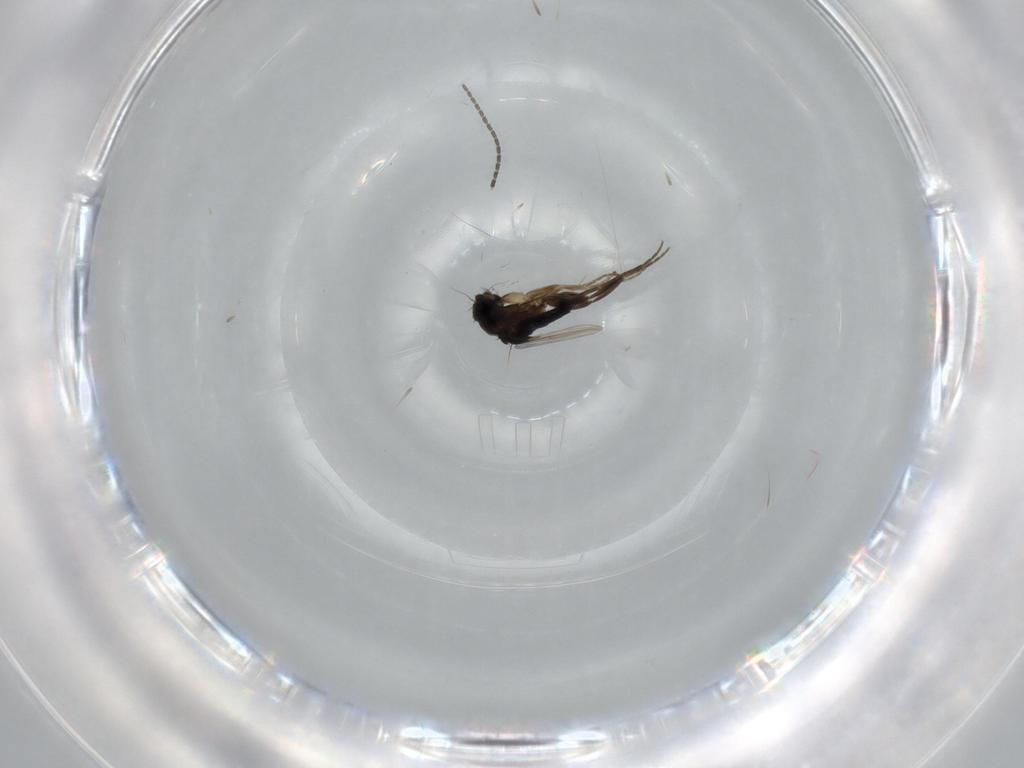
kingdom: Animalia
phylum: Arthropoda
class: Insecta
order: Diptera
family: Phoridae
